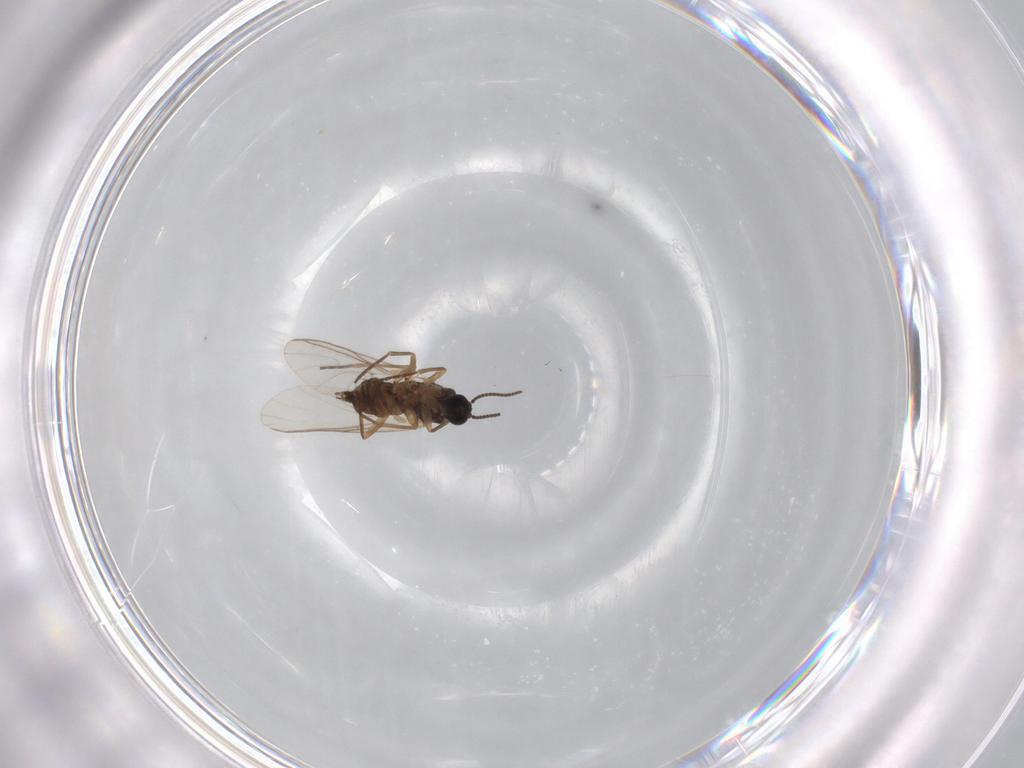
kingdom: Animalia
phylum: Arthropoda
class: Insecta
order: Diptera
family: Sciaridae
